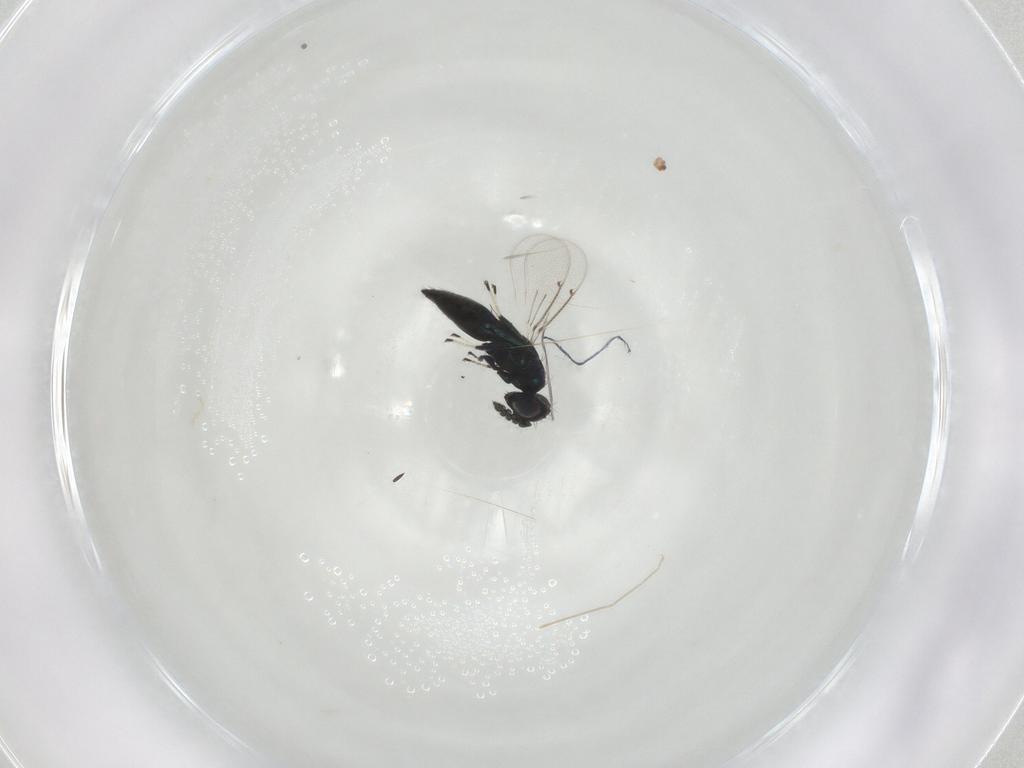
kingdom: Animalia
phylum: Arthropoda
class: Insecta
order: Hymenoptera
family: Eulophidae
